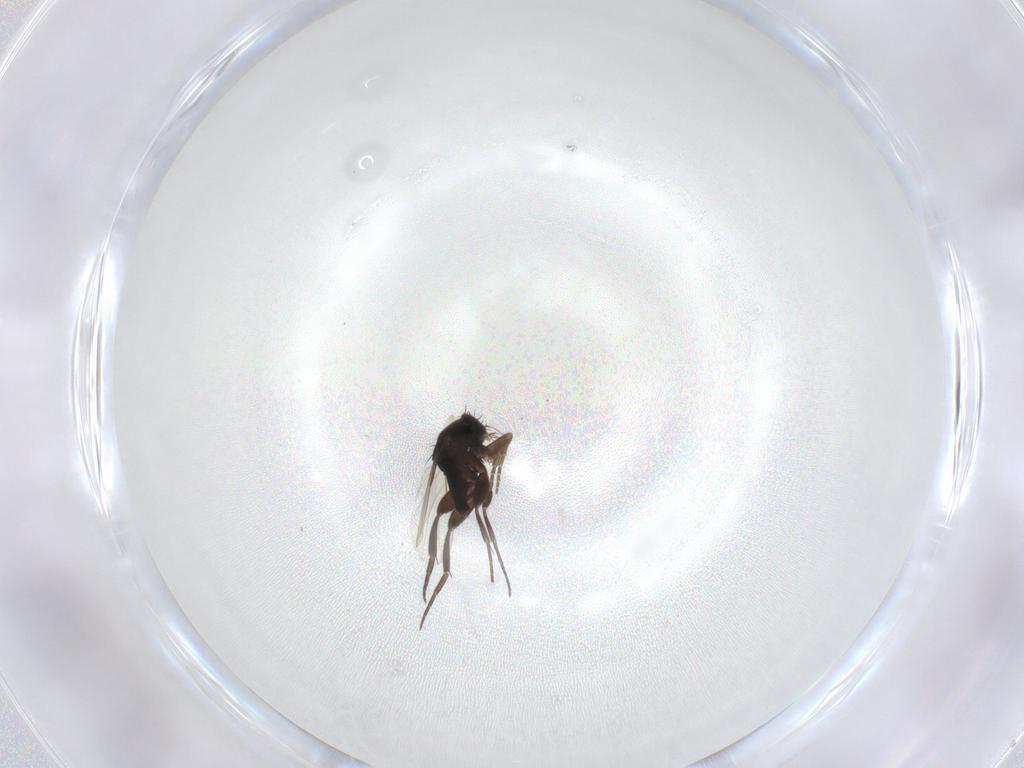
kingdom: Animalia
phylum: Arthropoda
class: Insecta
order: Diptera
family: Phoridae
